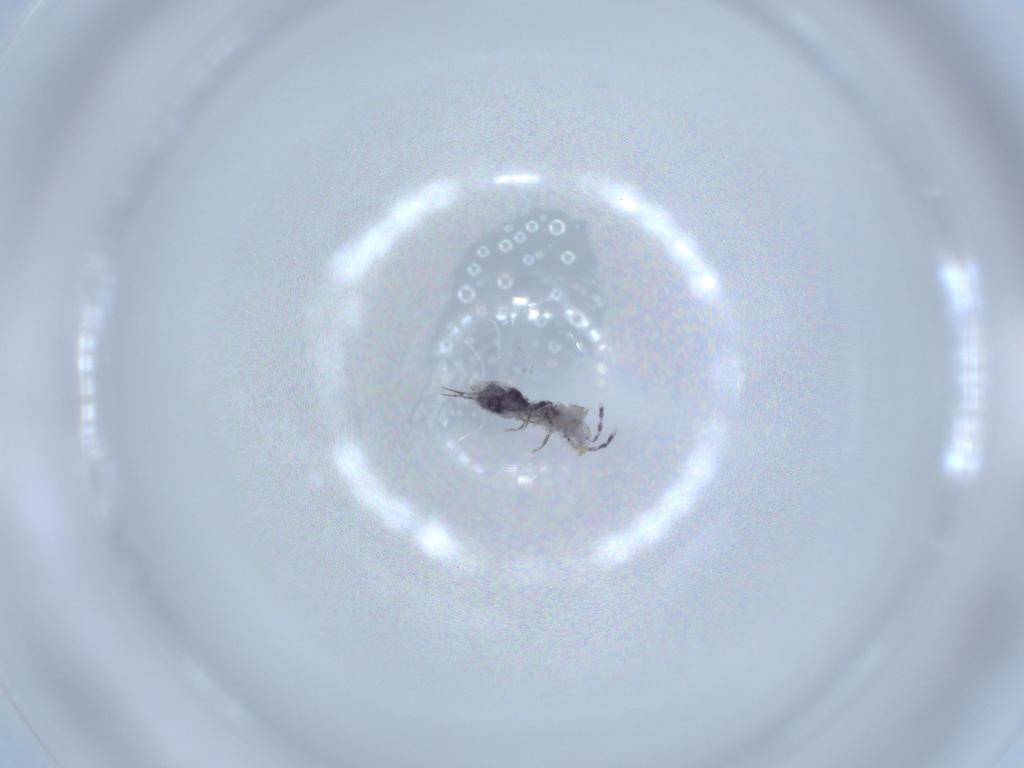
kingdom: Animalia
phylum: Arthropoda
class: Collembola
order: Entomobryomorpha
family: Isotomidae
